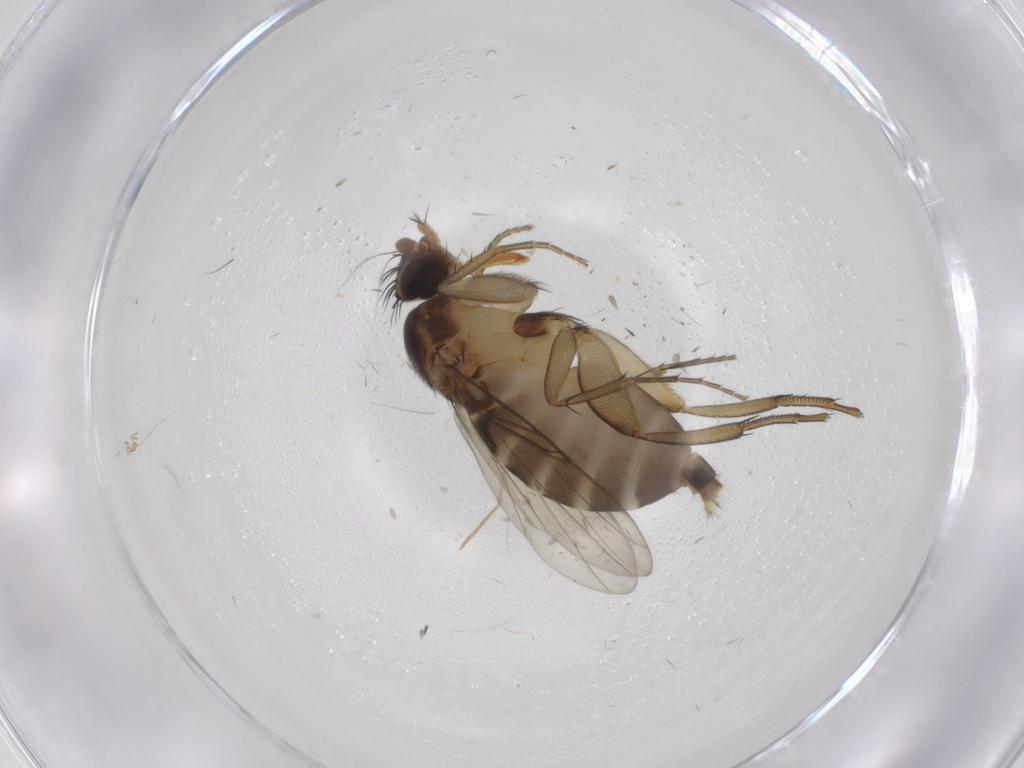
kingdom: Animalia
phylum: Arthropoda
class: Insecta
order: Diptera
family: Phoridae
